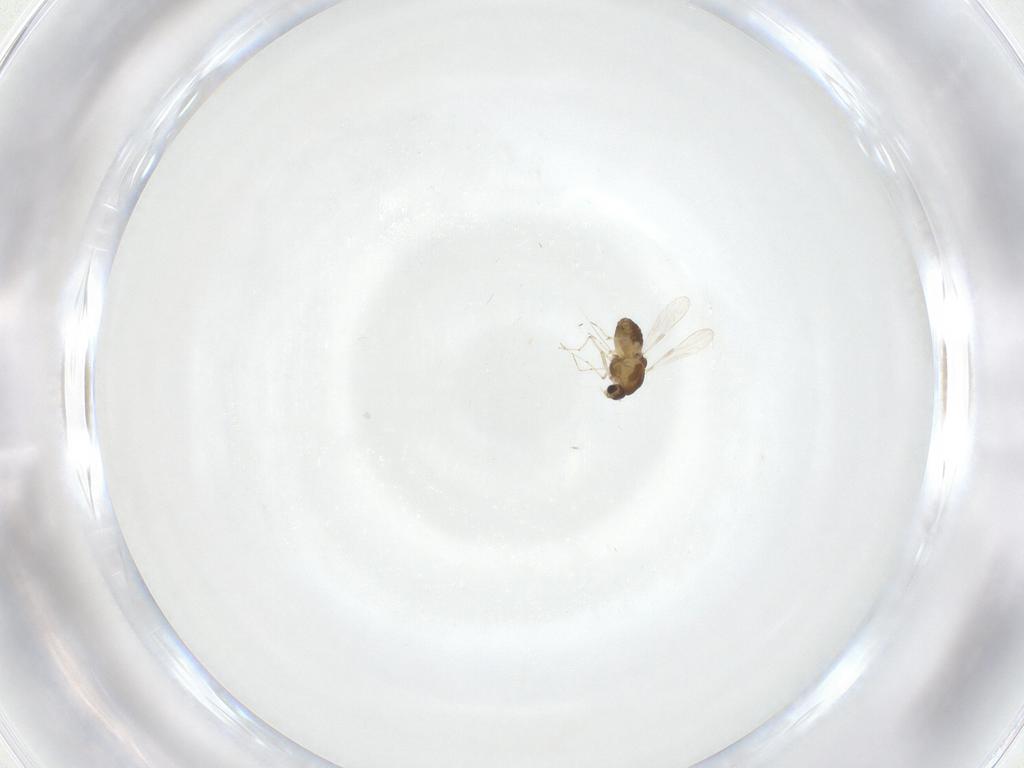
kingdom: Animalia
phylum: Arthropoda
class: Insecta
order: Diptera
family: Chironomidae
